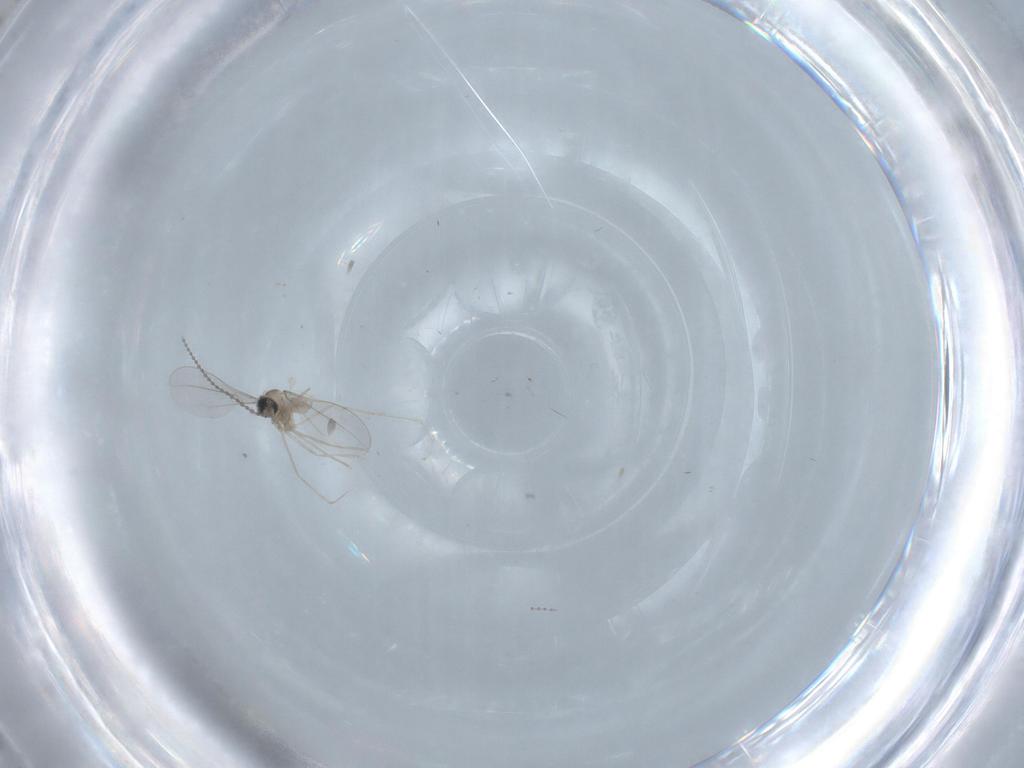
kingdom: Animalia
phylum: Arthropoda
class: Insecta
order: Diptera
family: Cecidomyiidae
